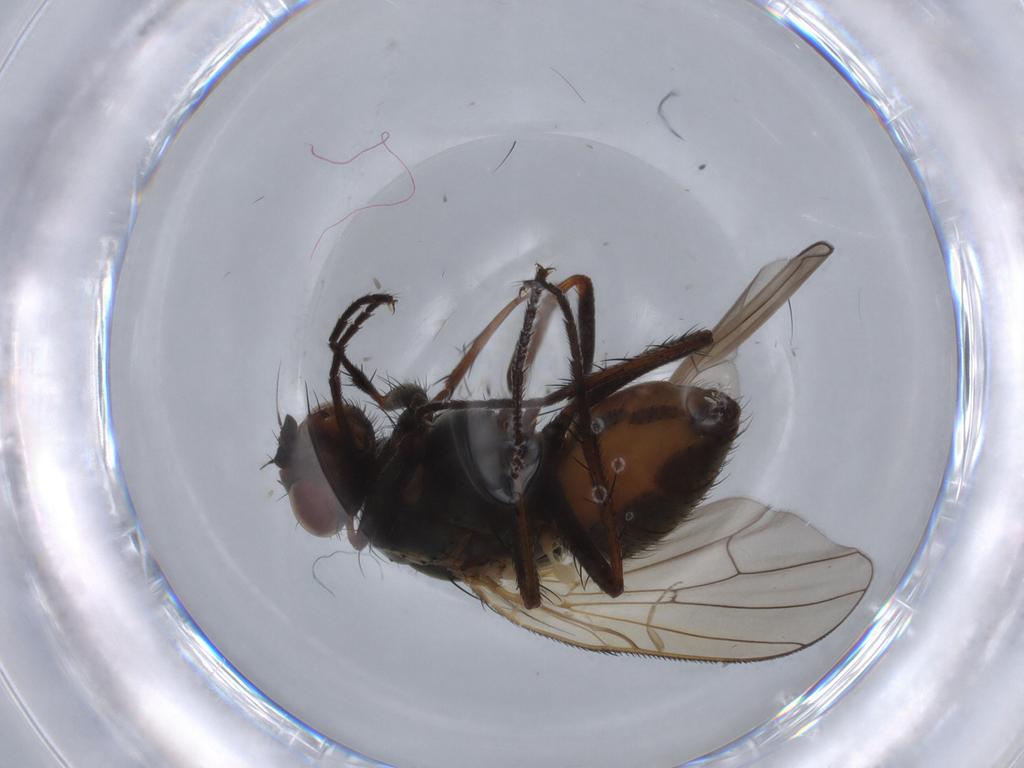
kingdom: Animalia
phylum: Arthropoda
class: Insecta
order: Diptera
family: Anthomyiidae
